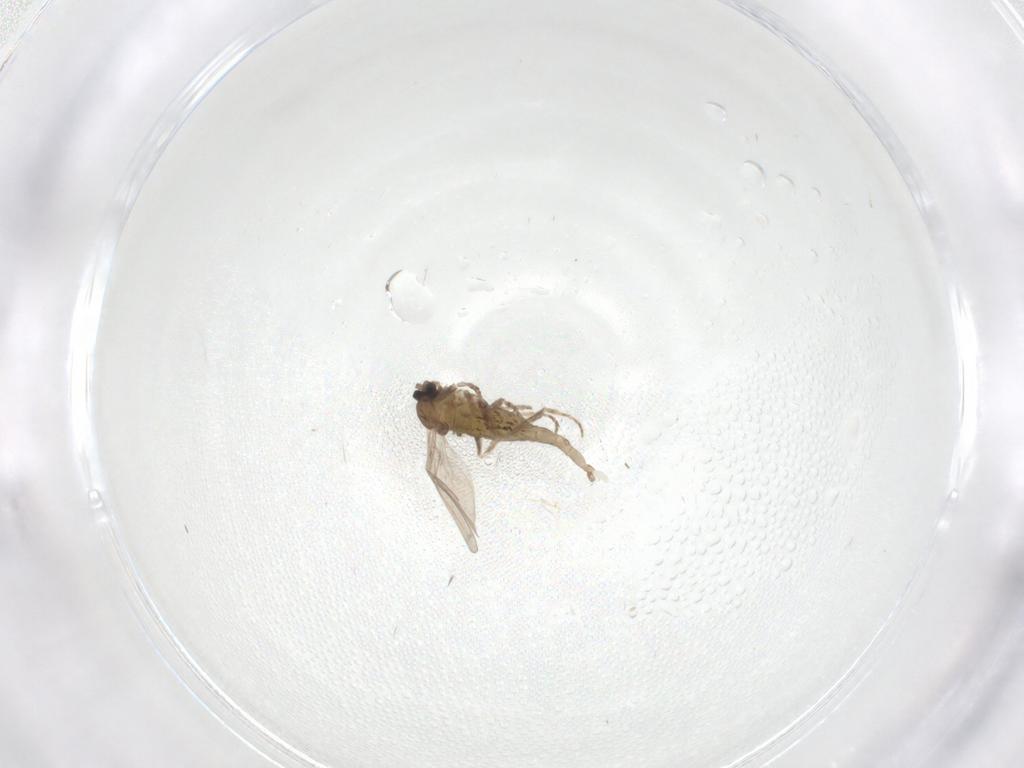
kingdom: Animalia
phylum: Arthropoda
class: Insecta
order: Diptera
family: Cecidomyiidae
